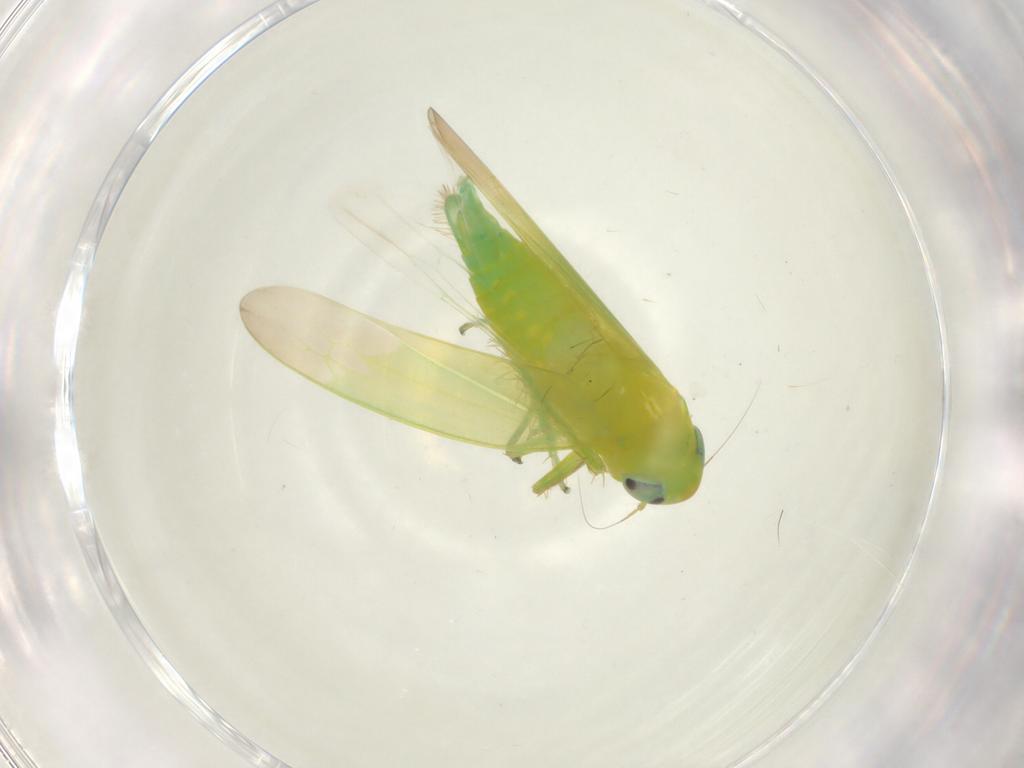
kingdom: Animalia
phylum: Arthropoda
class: Insecta
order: Hemiptera
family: Cicadellidae
